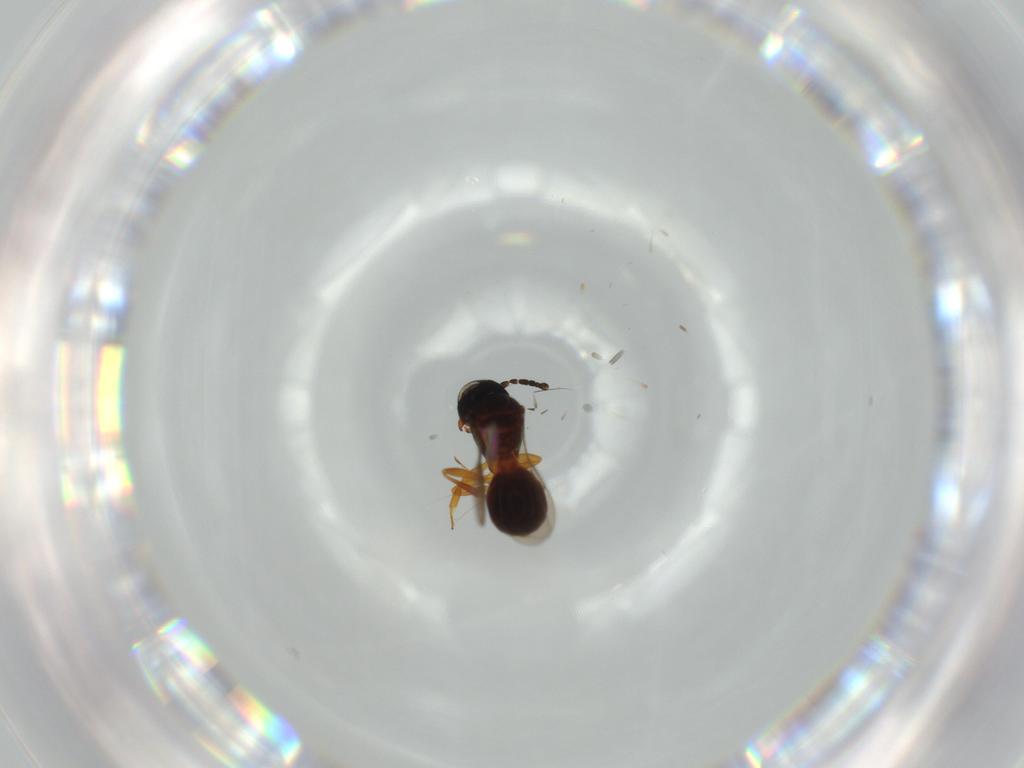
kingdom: Animalia
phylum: Arthropoda
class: Insecta
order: Hymenoptera
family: Scelionidae
